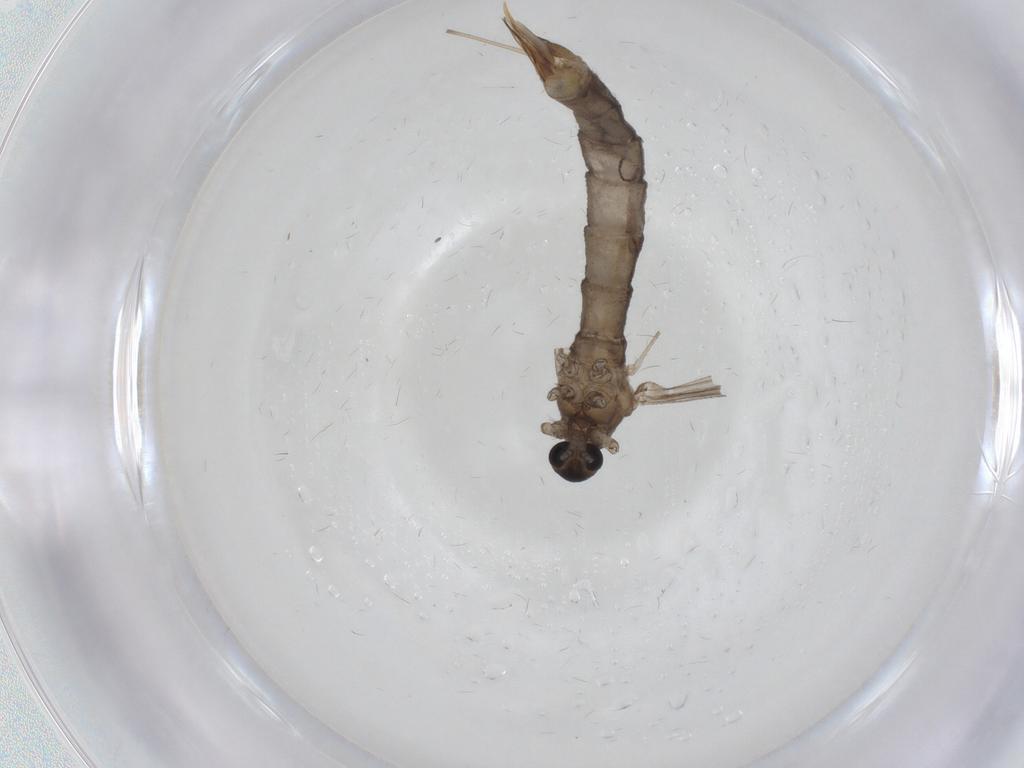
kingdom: Animalia
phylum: Arthropoda
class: Insecta
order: Diptera
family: Chironomidae
